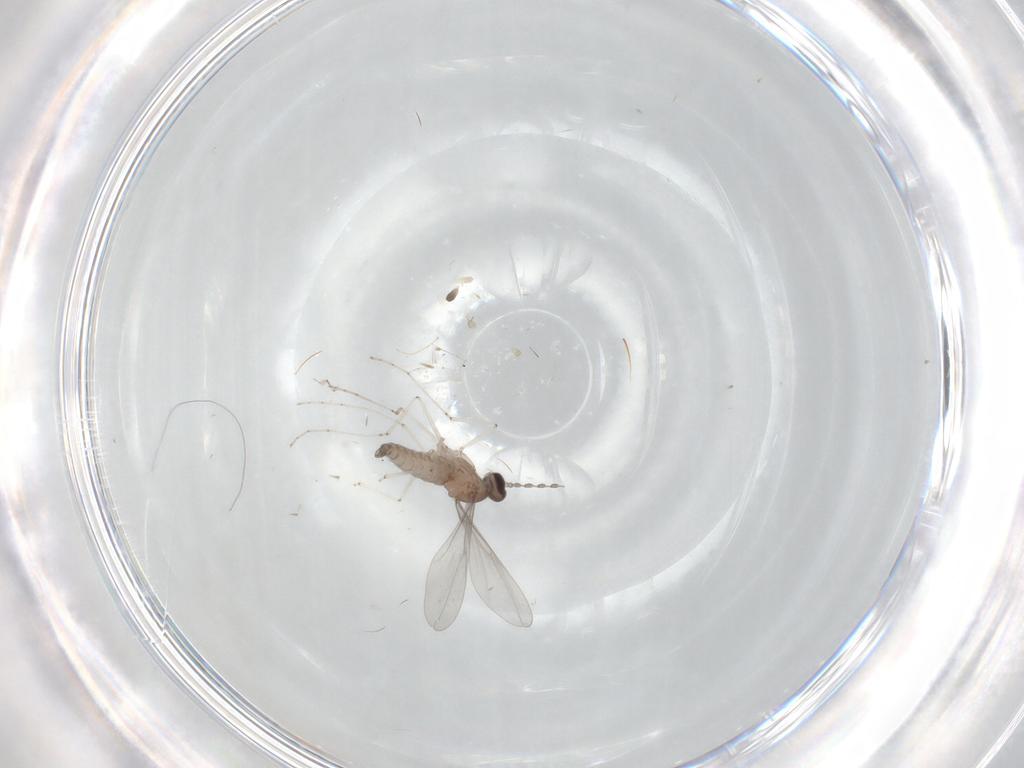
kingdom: Animalia
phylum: Arthropoda
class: Insecta
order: Diptera
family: Cecidomyiidae
